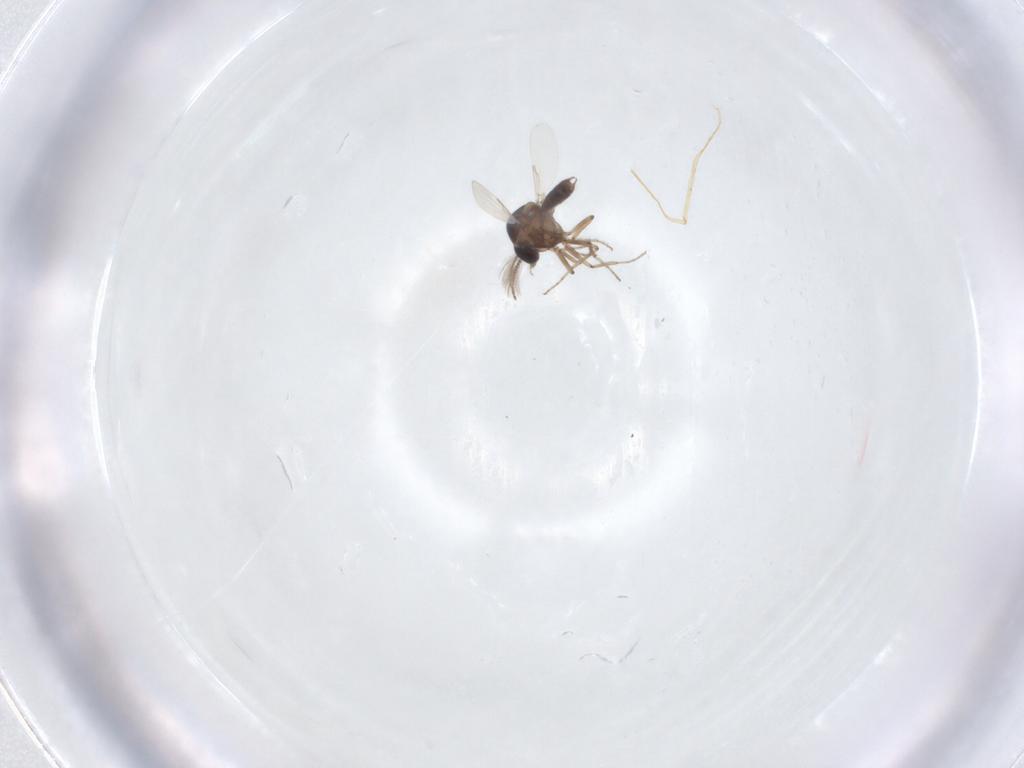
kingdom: Animalia
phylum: Arthropoda
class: Insecta
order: Diptera
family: Ceratopogonidae
